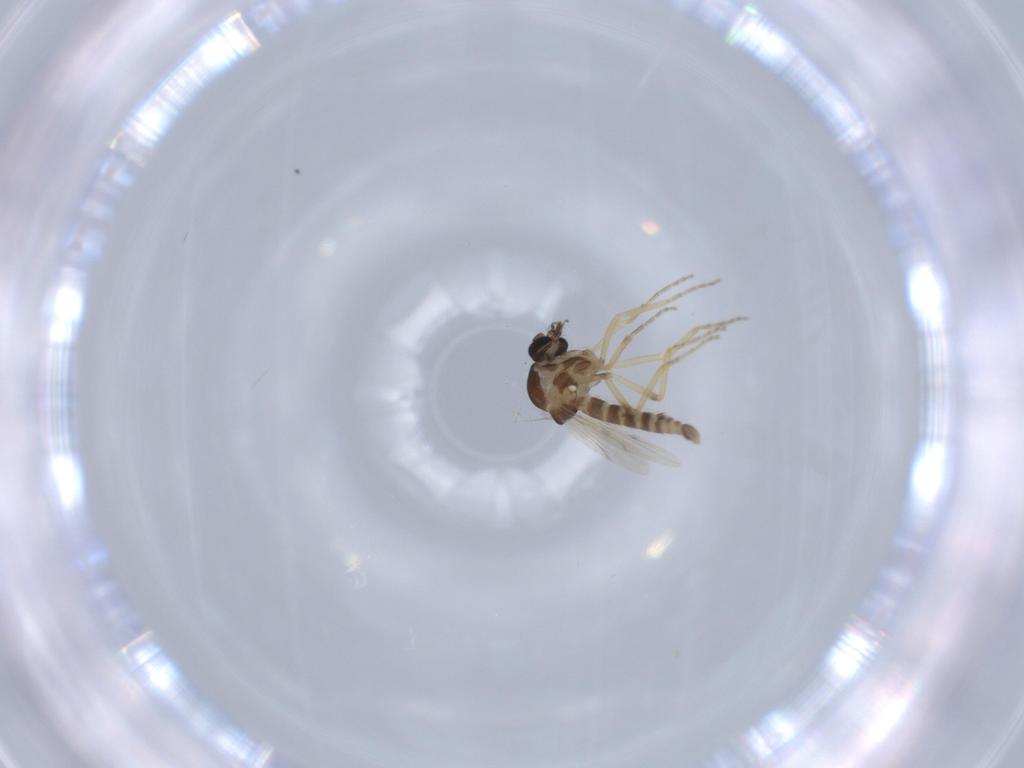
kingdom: Animalia
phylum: Arthropoda
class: Insecta
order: Diptera
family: Ceratopogonidae
